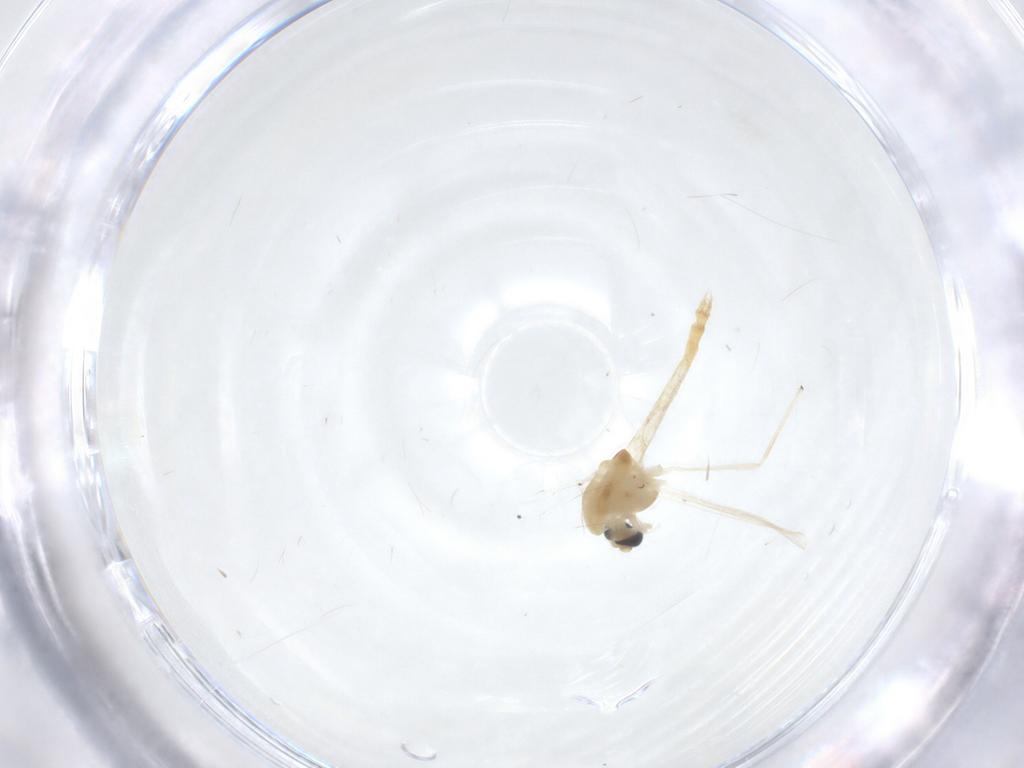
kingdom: Animalia
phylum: Arthropoda
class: Insecta
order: Diptera
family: Chironomidae
